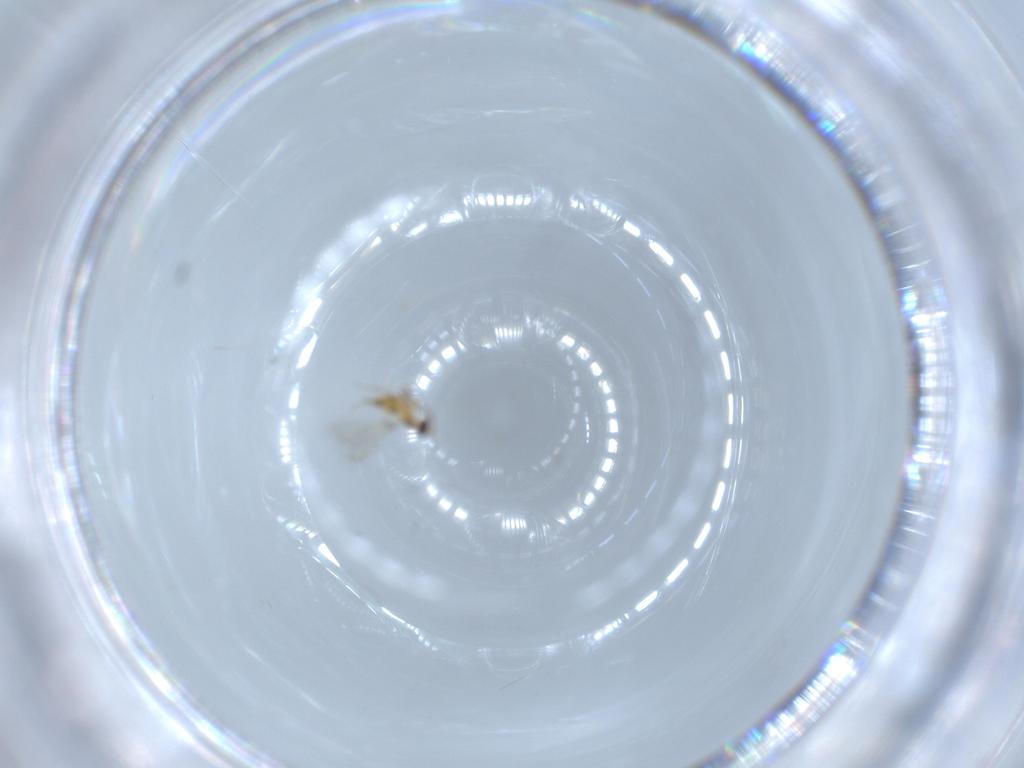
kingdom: Animalia
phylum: Arthropoda
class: Insecta
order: Hymenoptera
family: Mymaridae
